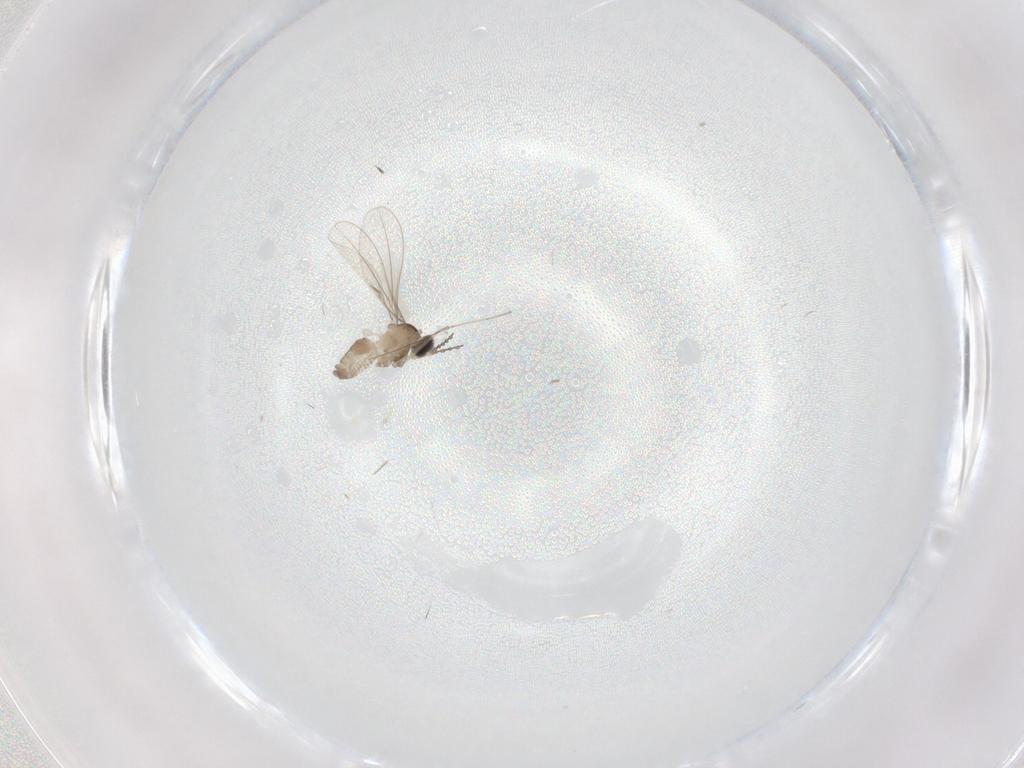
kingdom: Animalia
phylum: Arthropoda
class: Insecta
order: Diptera
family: Cecidomyiidae
